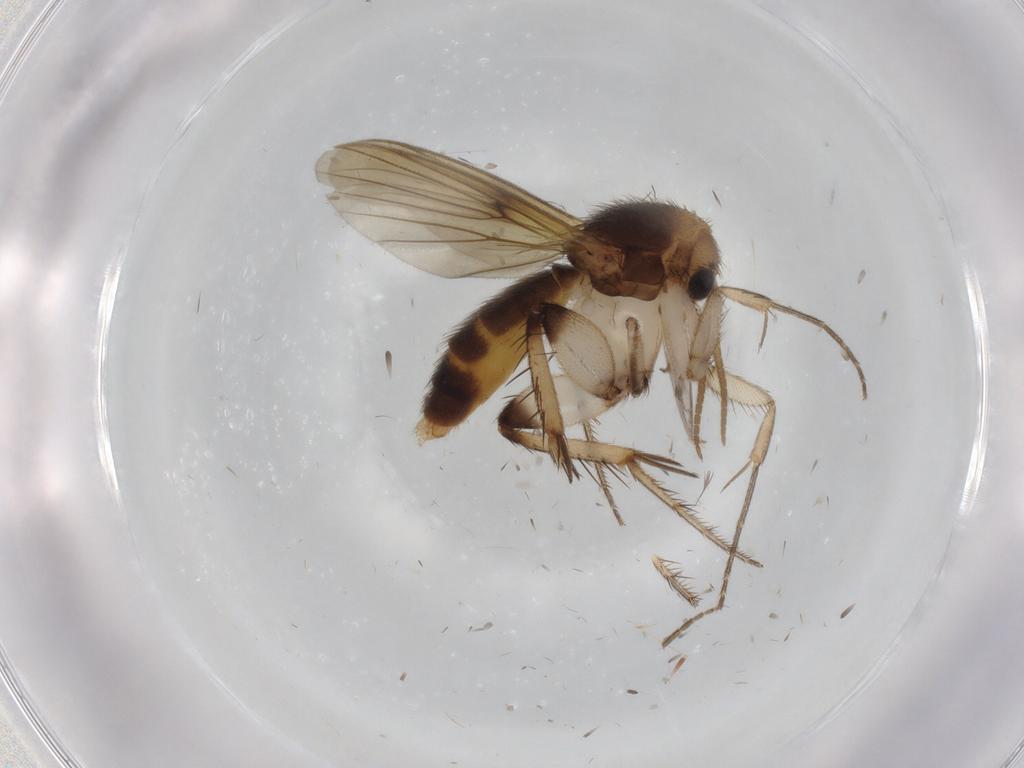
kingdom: Animalia
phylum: Arthropoda
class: Insecta
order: Diptera
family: Mycetophilidae
